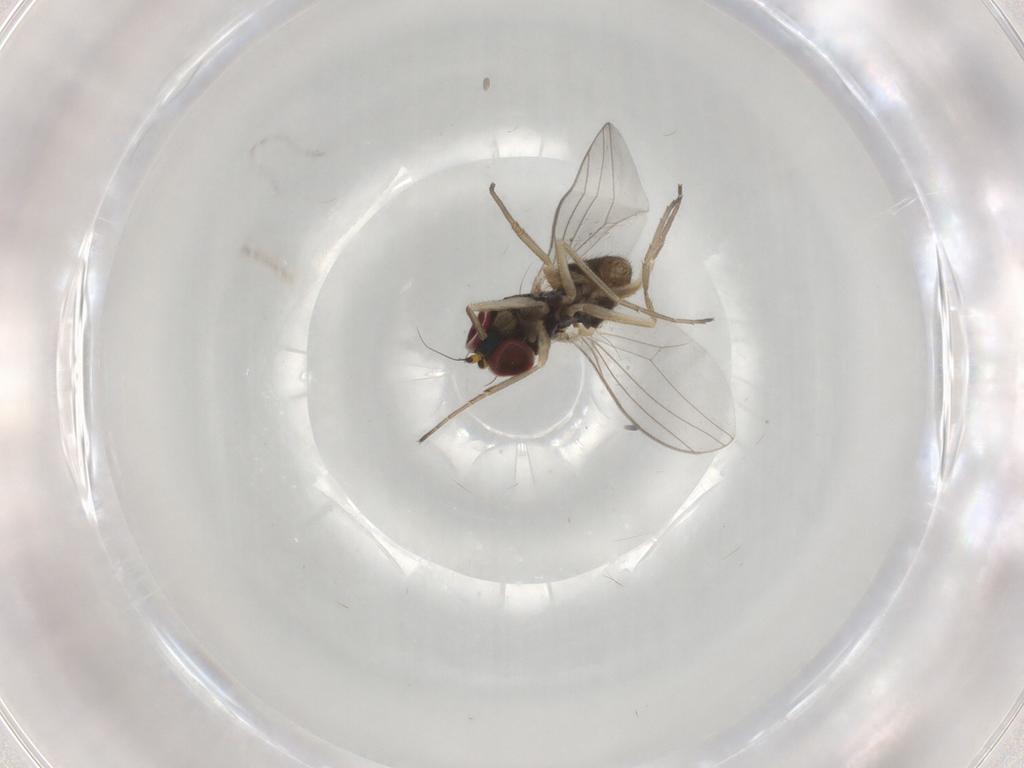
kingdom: Animalia
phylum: Arthropoda
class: Insecta
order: Diptera
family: Dolichopodidae
